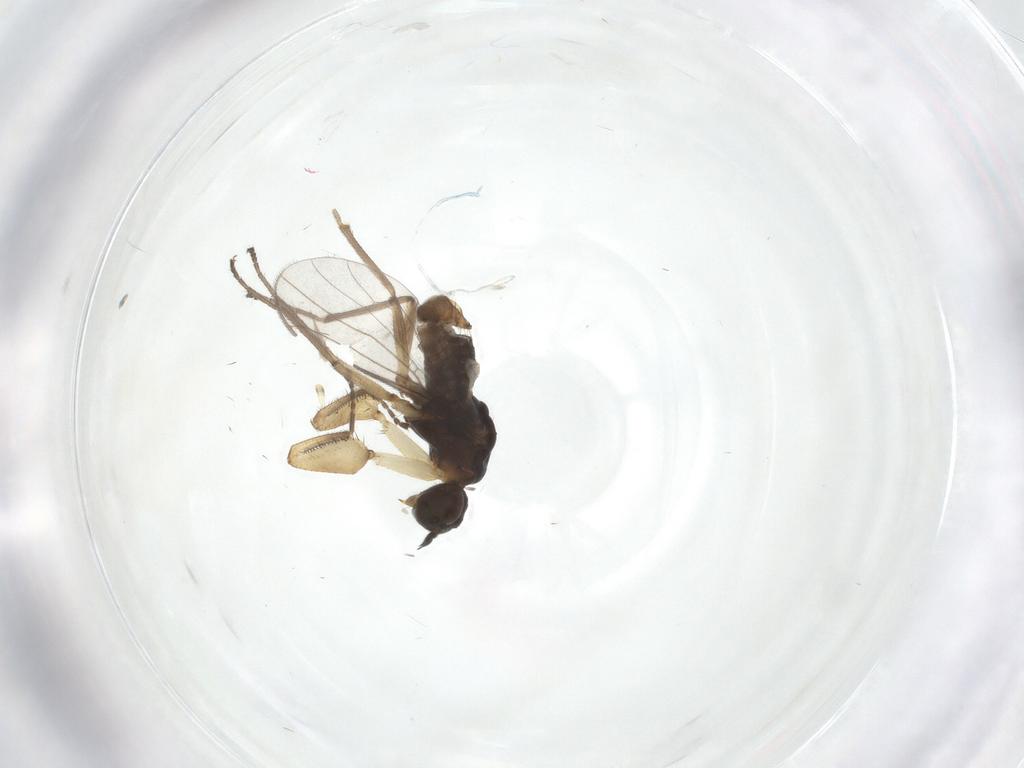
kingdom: Animalia
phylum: Arthropoda
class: Insecta
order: Diptera
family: Empididae
